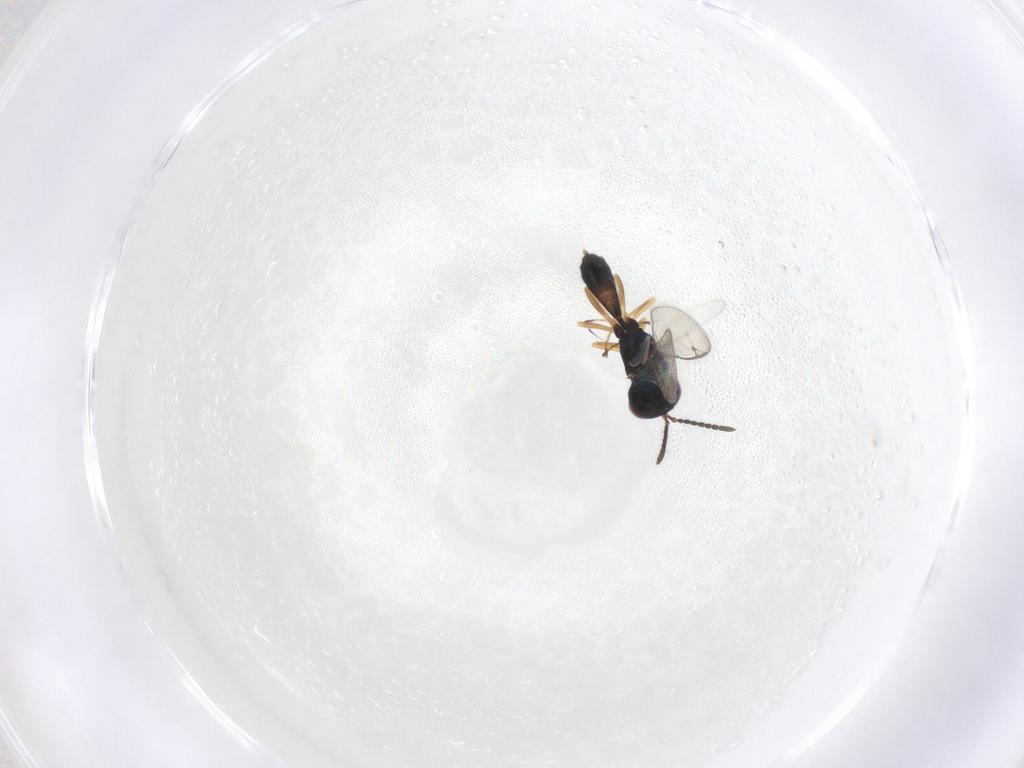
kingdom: Animalia
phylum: Arthropoda
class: Insecta
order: Hymenoptera
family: Pteromalidae
